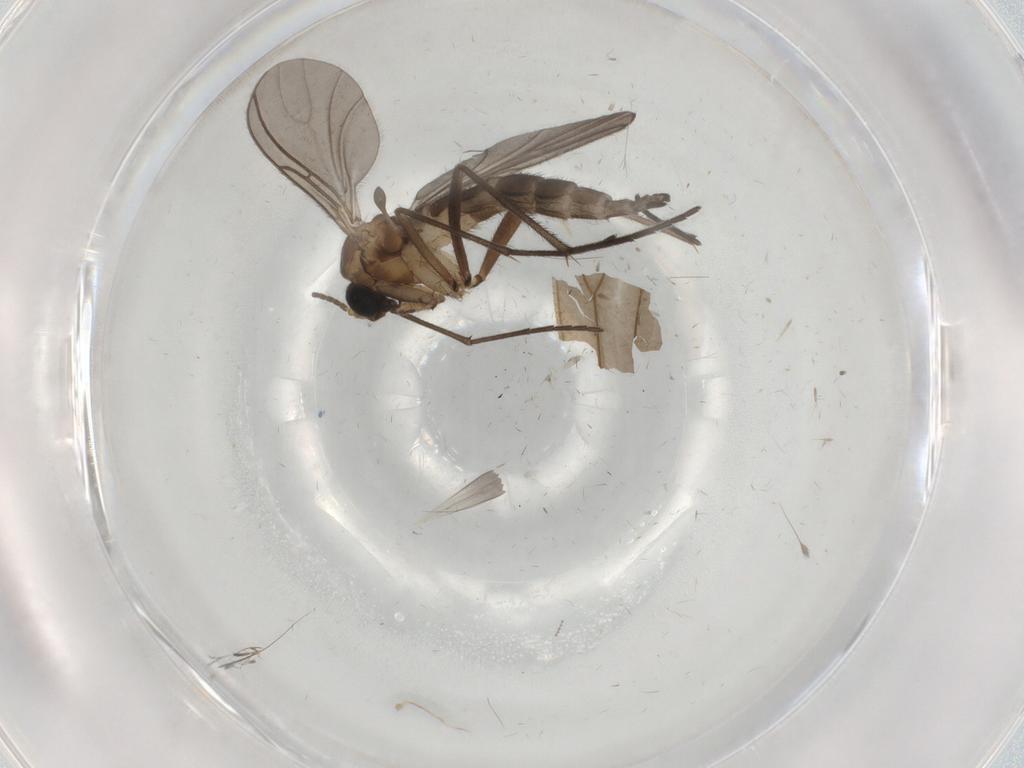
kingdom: Animalia
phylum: Arthropoda
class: Insecta
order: Diptera
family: Sciaridae
